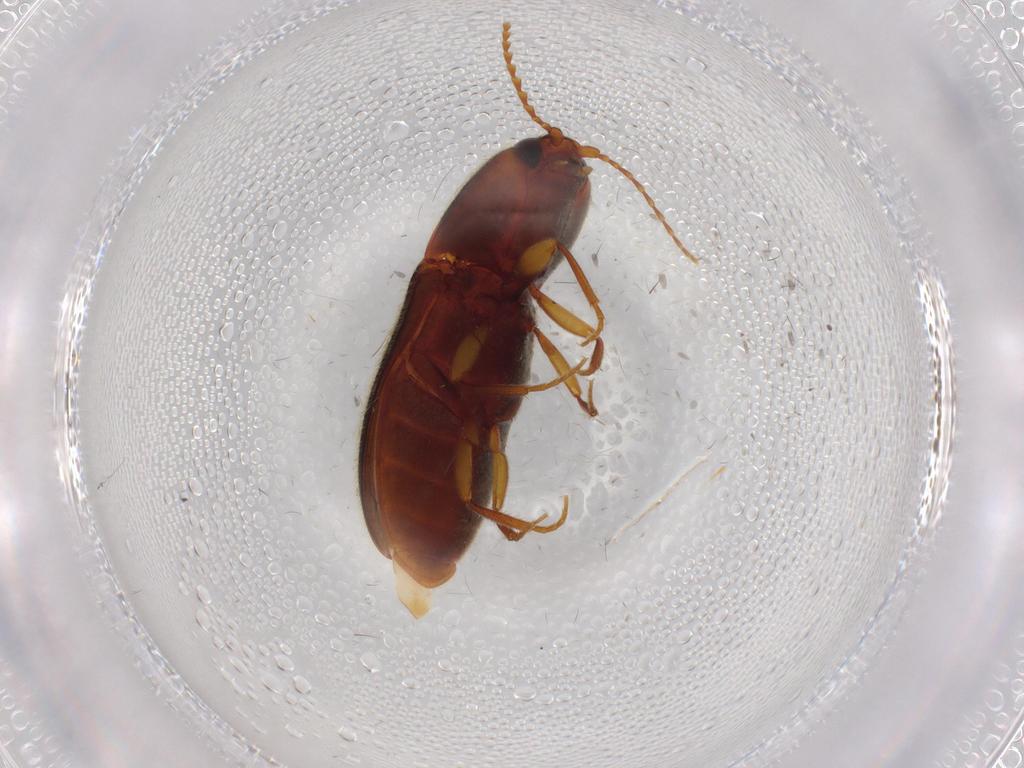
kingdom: Animalia
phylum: Arthropoda
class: Insecta
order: Coleoptera
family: Elateridae
